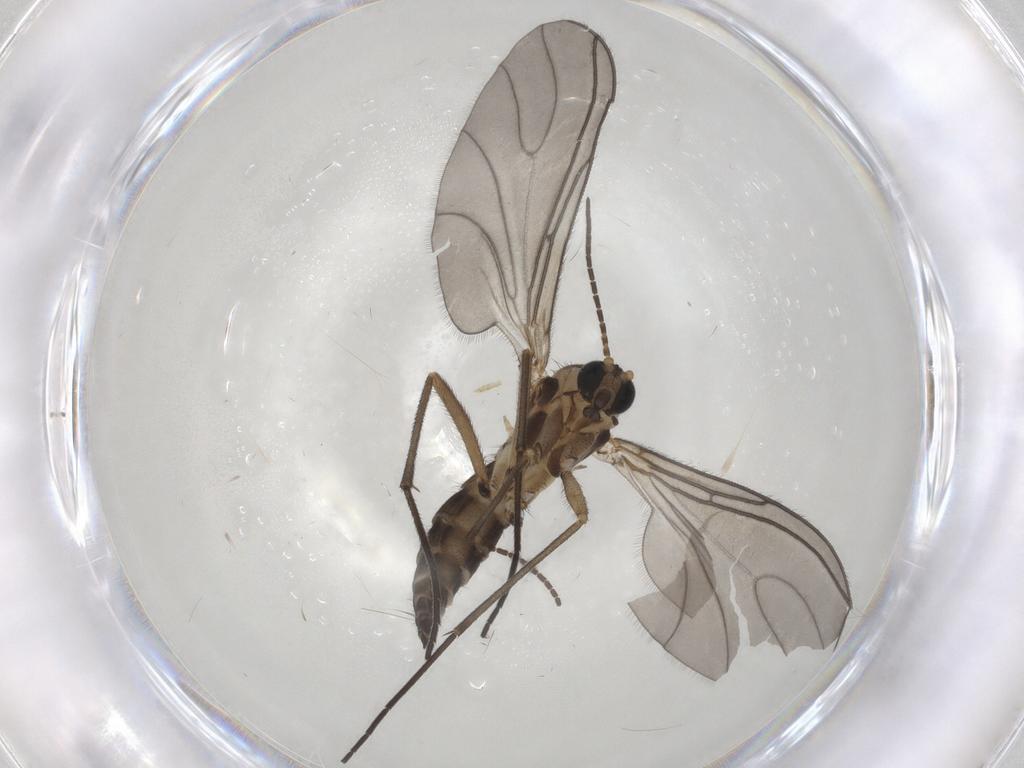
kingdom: Animalia
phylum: Arthropoda
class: Insecta
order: Diptera
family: Sciaridae
